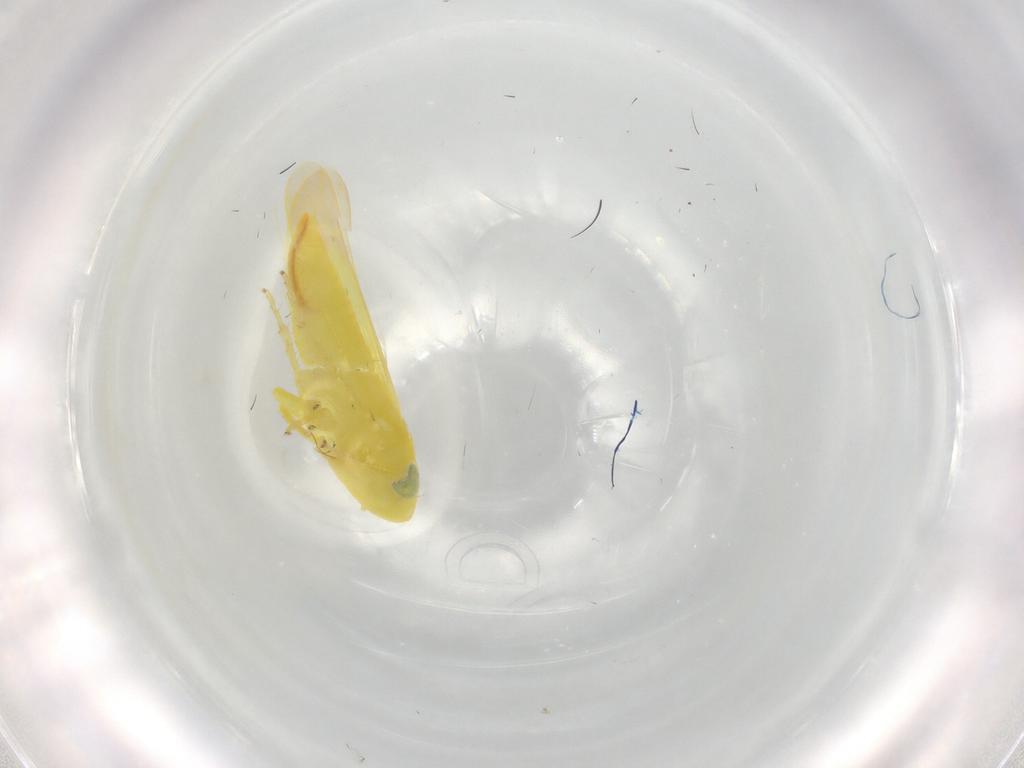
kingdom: Animalia
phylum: Arthropoda
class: Insecta
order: Hemiptera
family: Cicadellidae
